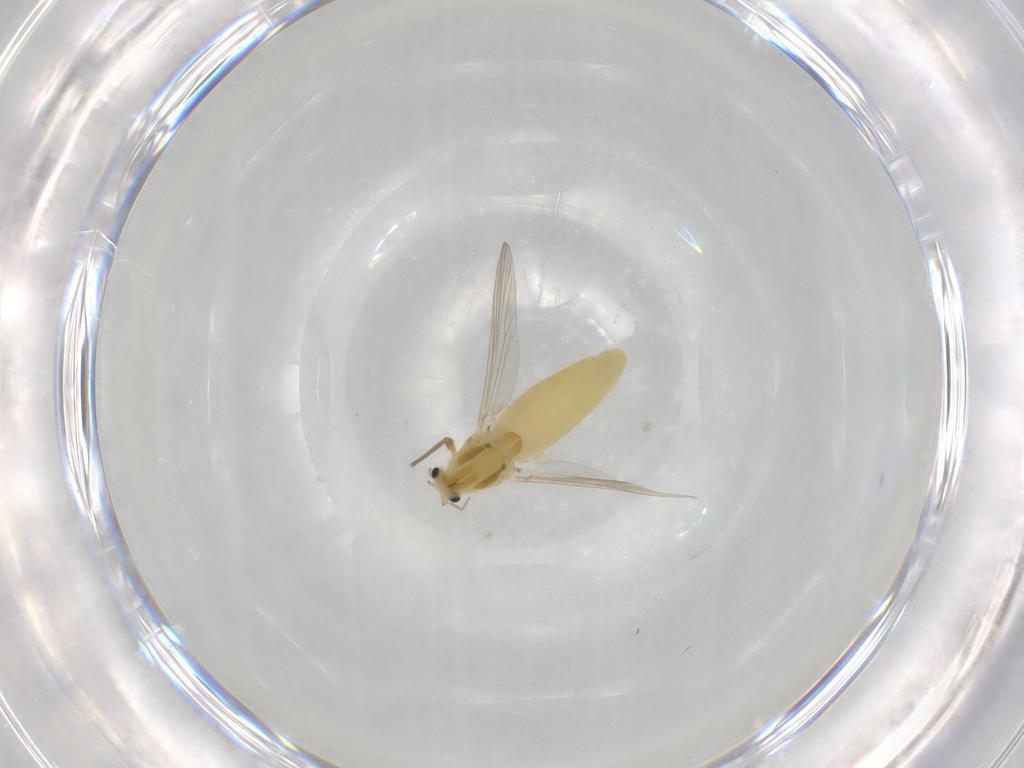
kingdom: Animalia
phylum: Arthropoda
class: Insecta
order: Diptera
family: Chironomidae
